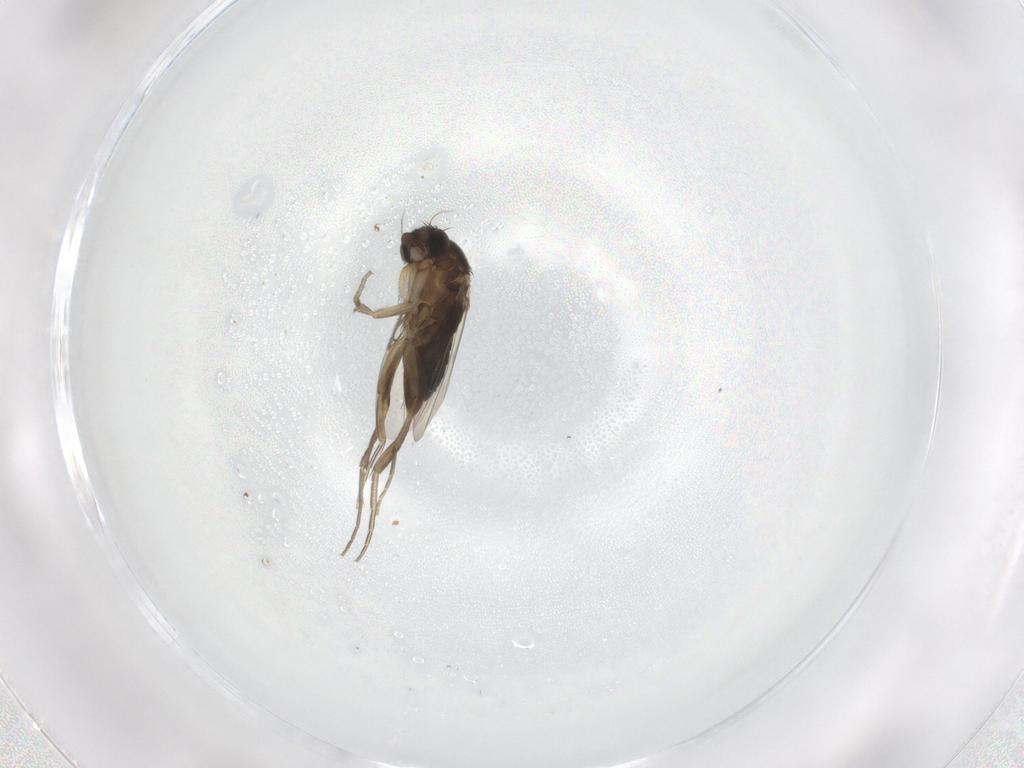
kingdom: Animalia
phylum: Arthropoda
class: Insecta
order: Diptera
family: Phoridae
